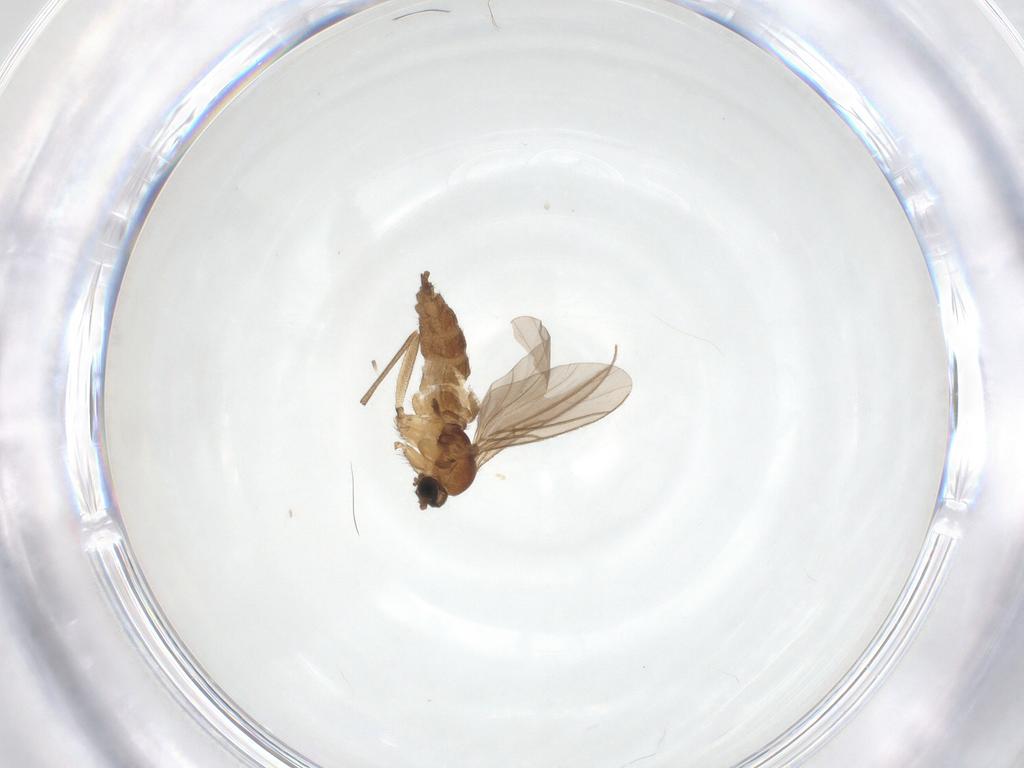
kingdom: Animalia
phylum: Arthropoda
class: Insecta
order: Diptera
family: Sciaridae
